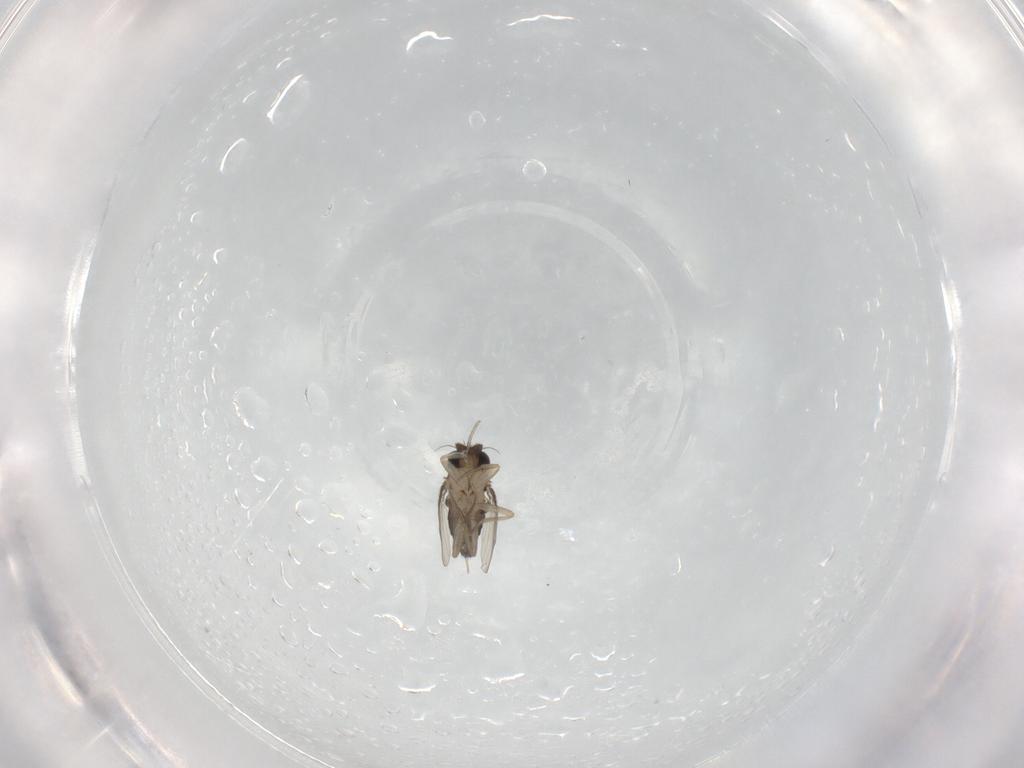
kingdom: Animalia
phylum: Arthropoda
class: Insecta
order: Diptera
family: Phoridae
